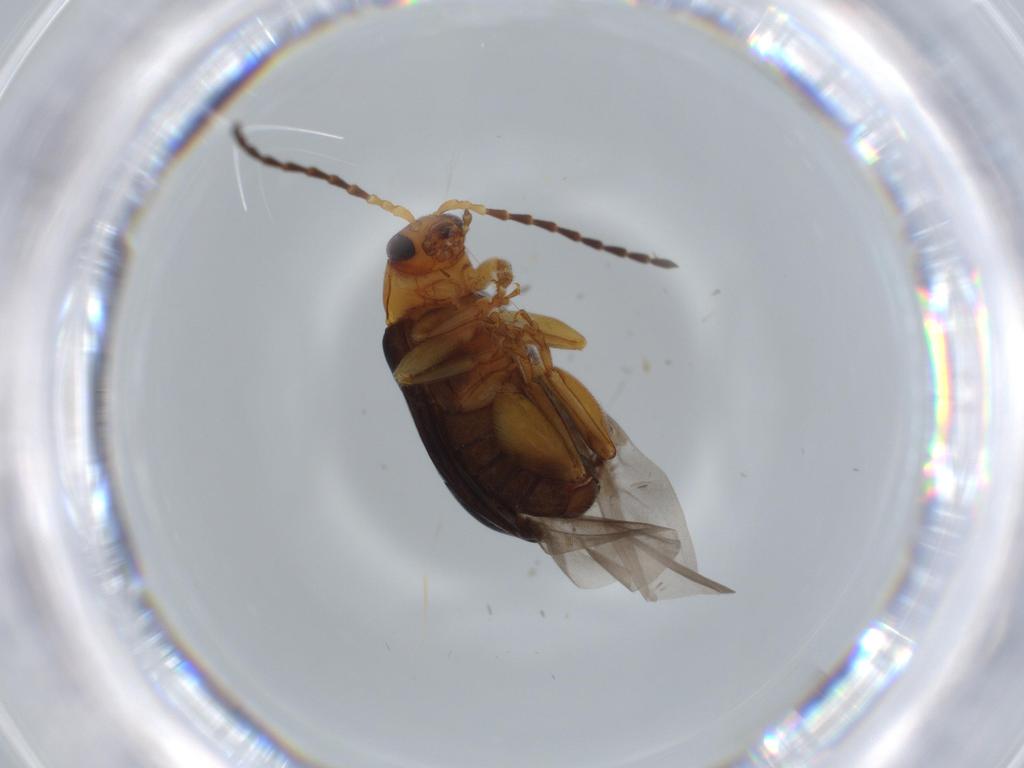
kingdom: Animalia
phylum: Arthropoda
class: Insecta
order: Coleoptera
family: Chrysomelidae
